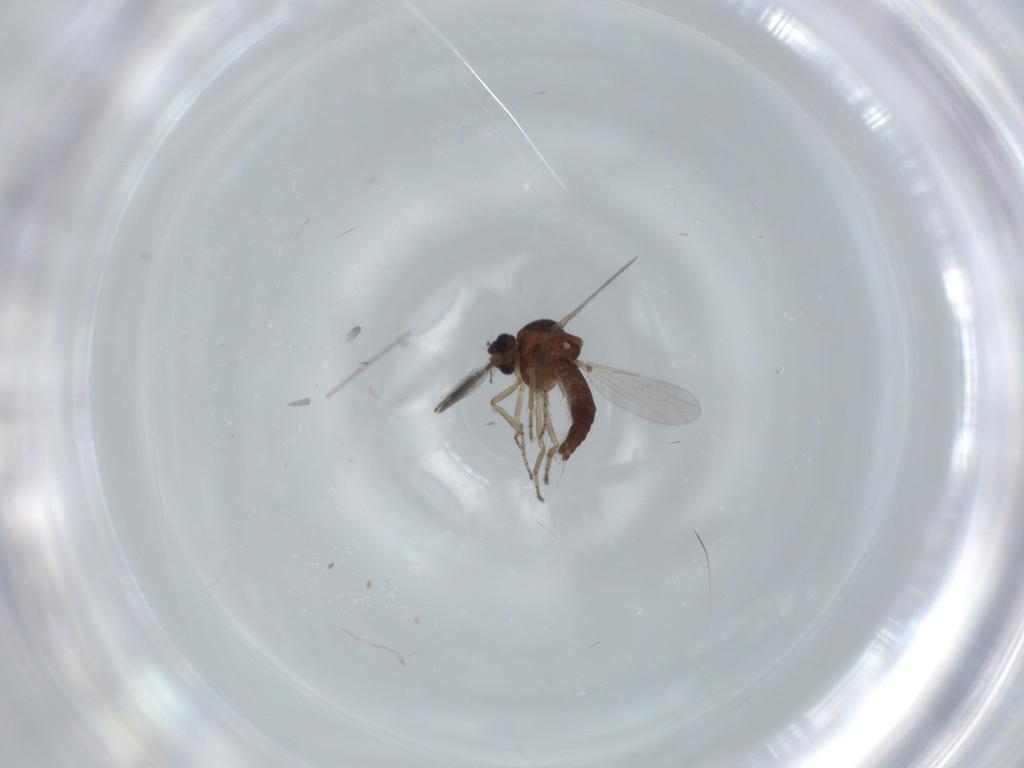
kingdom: Animalia
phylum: Arthropoda
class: Insecta
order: Diptera
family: Ceratopogonidae
